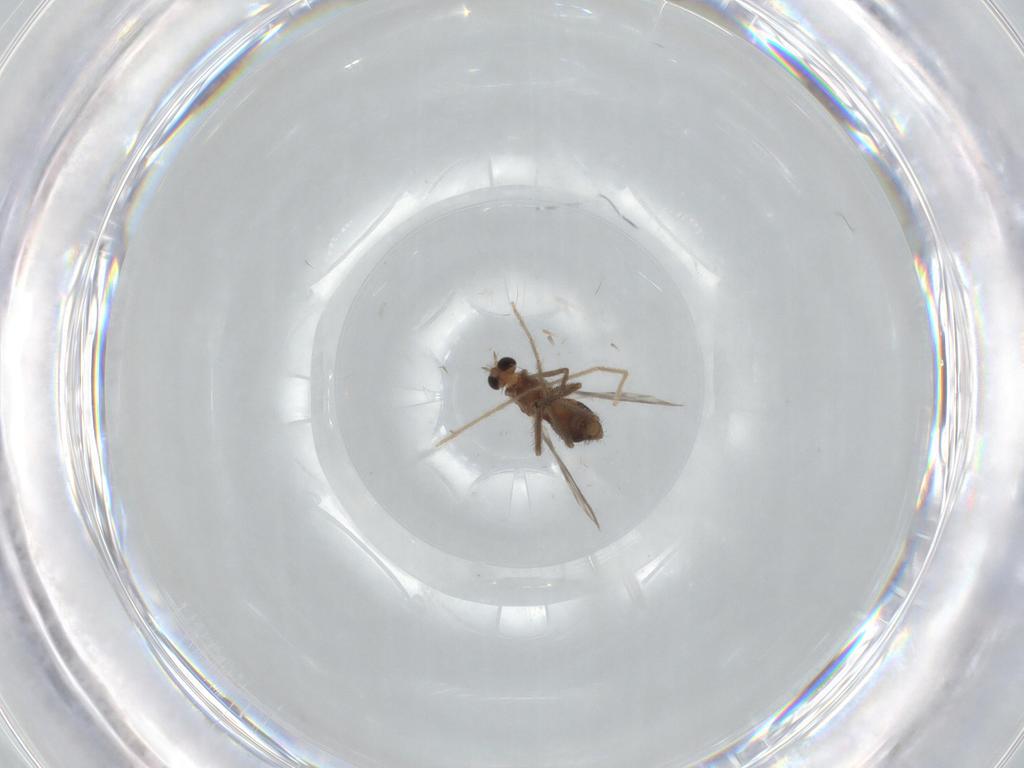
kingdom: Animalia
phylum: Arthropoda
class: Insecta
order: Diptera
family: Chironomidae
